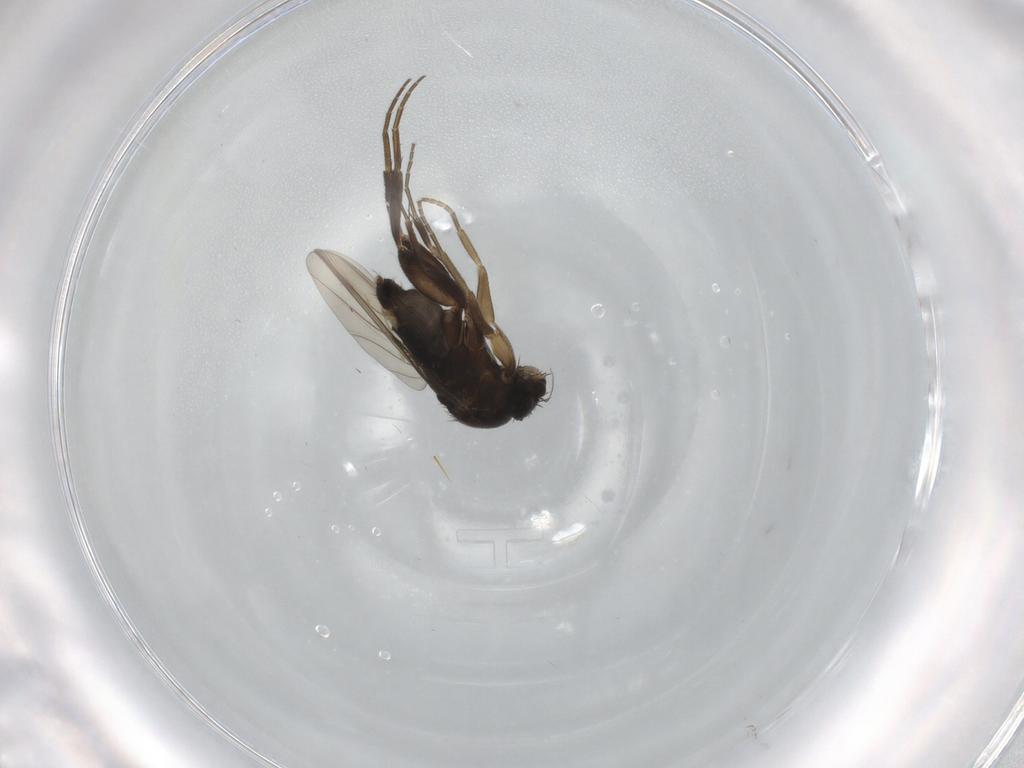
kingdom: Animalia
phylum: Arthropoda
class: Insecta
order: Diptera
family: Phoridae
